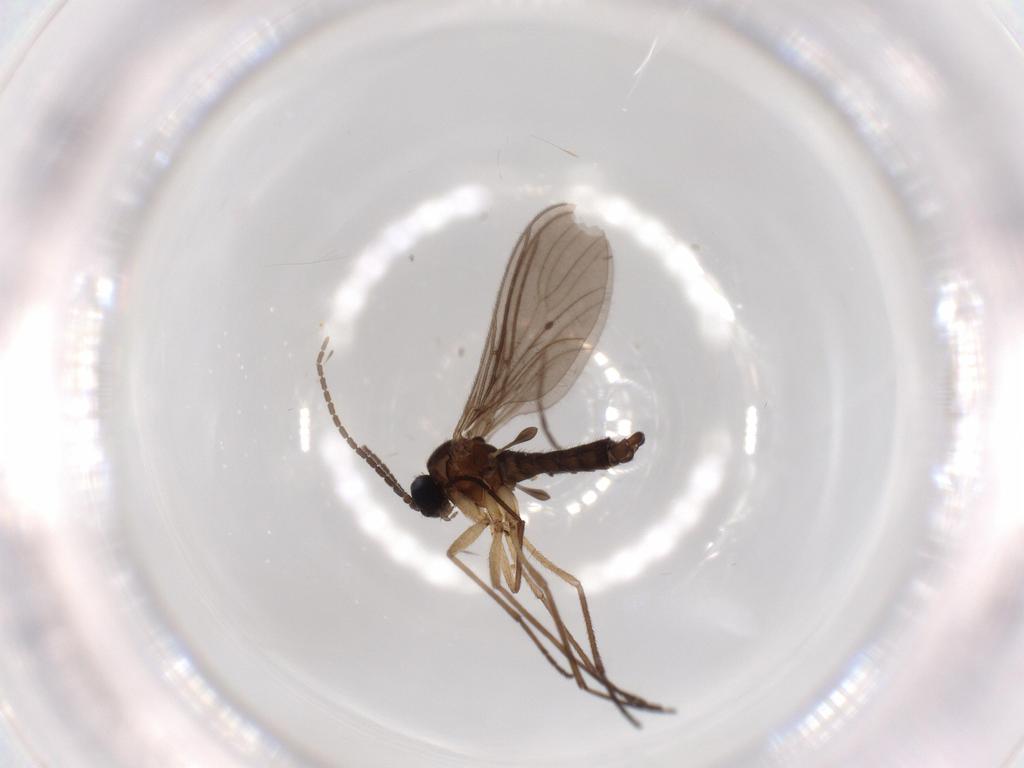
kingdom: Animalia
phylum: Arthropoda
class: Insecta
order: Diptera
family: Sciaridae
